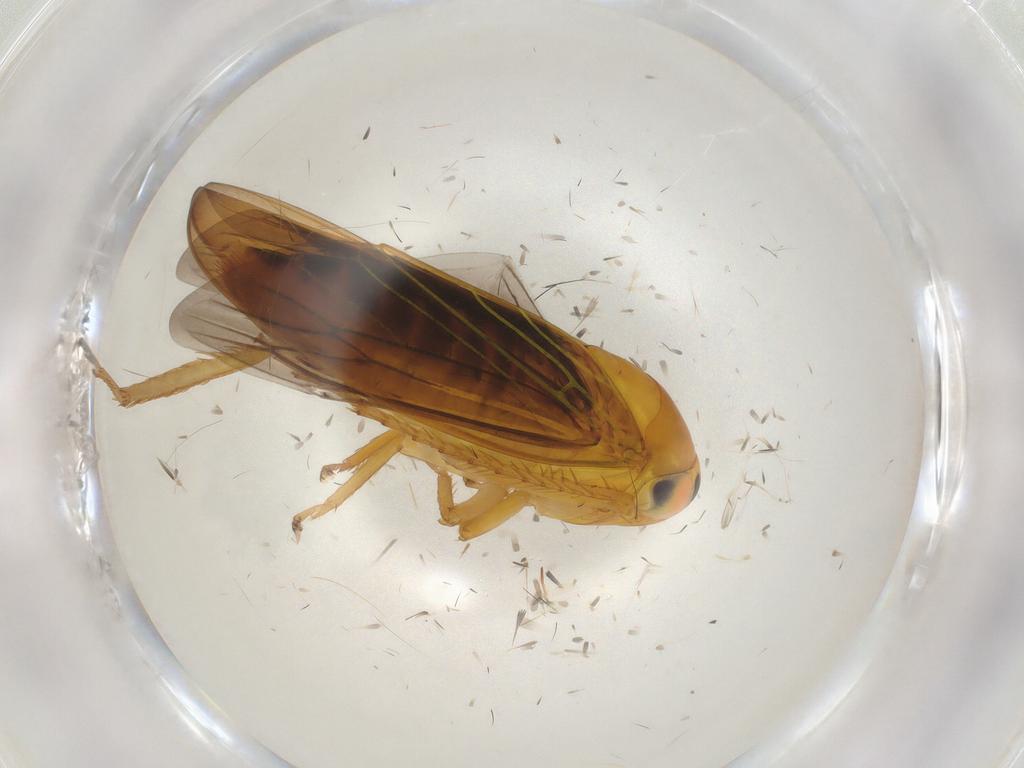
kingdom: Animalia
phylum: Arthropoda
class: Insecta
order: Hemiptera
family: Cicadellidae
